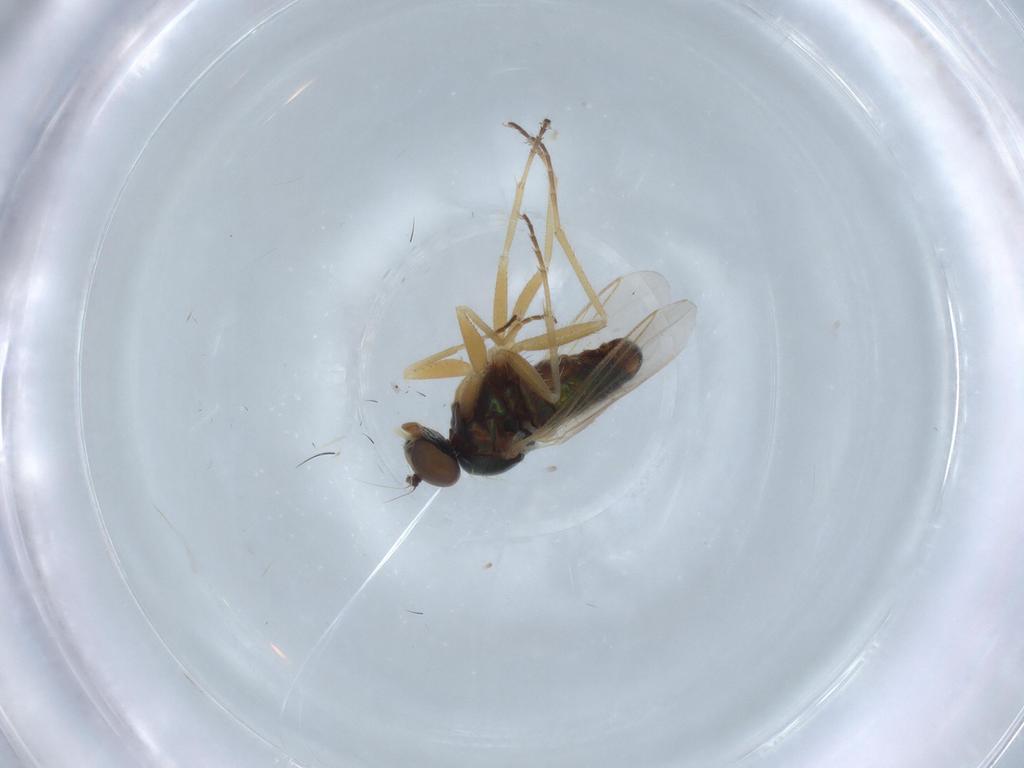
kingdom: Animalia
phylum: Arthropoda
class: Insecta
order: Diptera
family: Dolichopodidae
